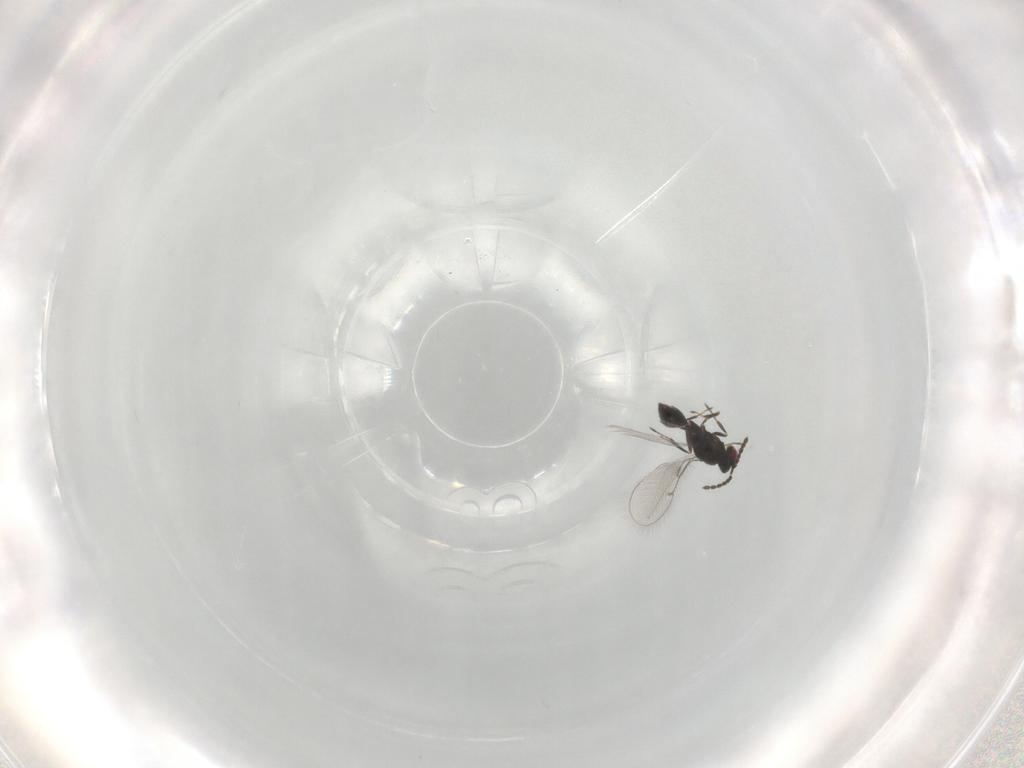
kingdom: Animalia
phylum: Arthropoda
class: Insecta
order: Hymenoptera
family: Eulophidae
